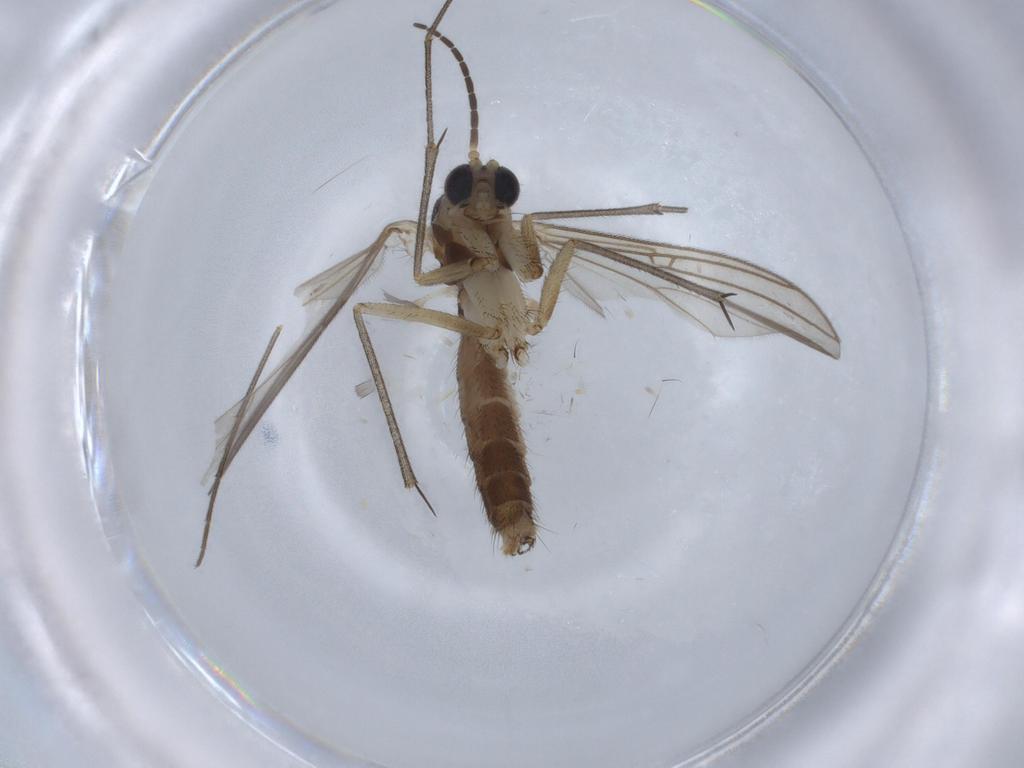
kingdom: Animalia
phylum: Arthropoda
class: Insecta
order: Diptera
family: Mycetophilidae
